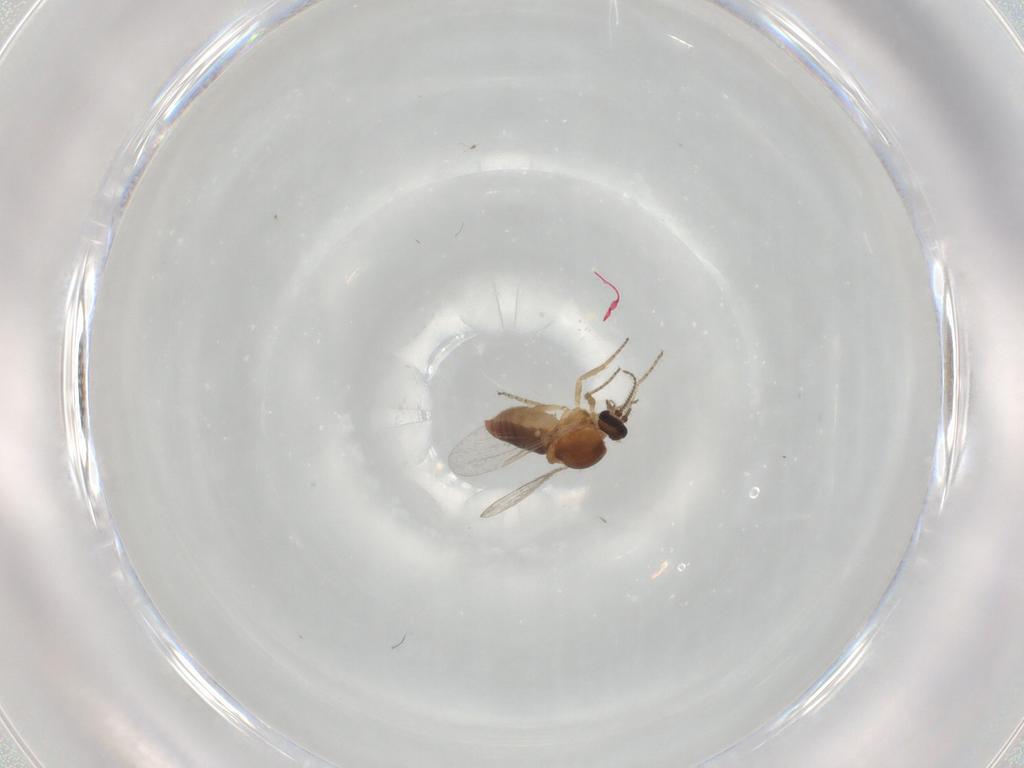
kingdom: Animalia
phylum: Arthropoda
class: Insecta
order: Diptera
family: Ceratopogonidae
